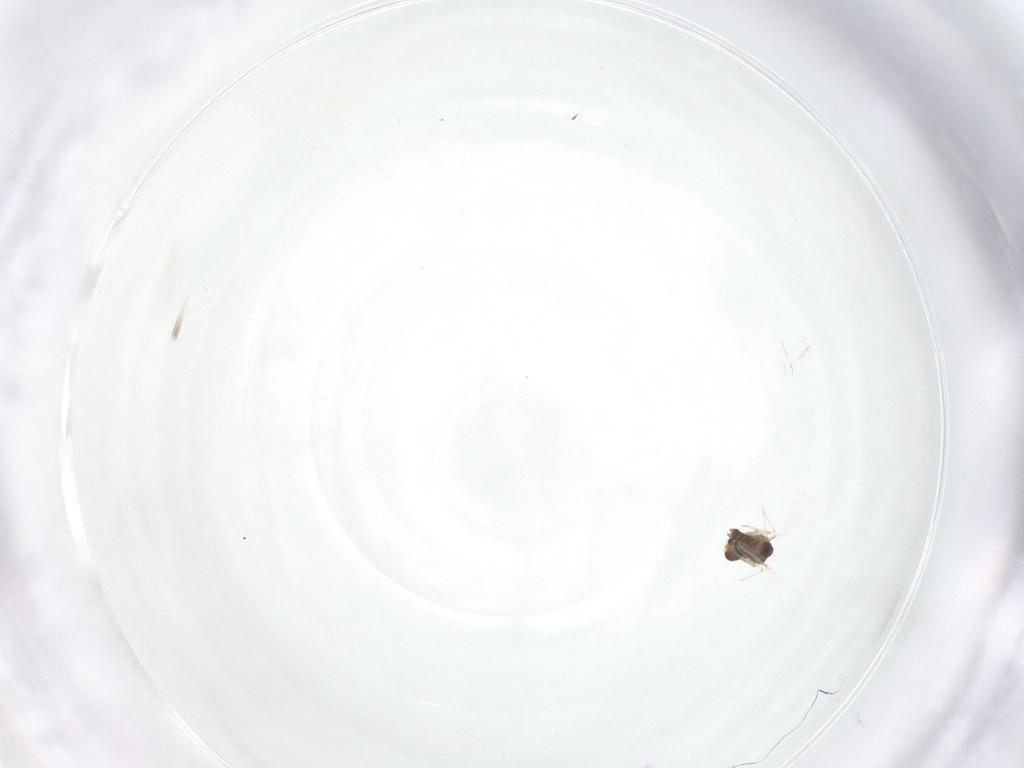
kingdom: Animalia
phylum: Arthropoda
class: Insecta
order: Diptera
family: Chironomidae
